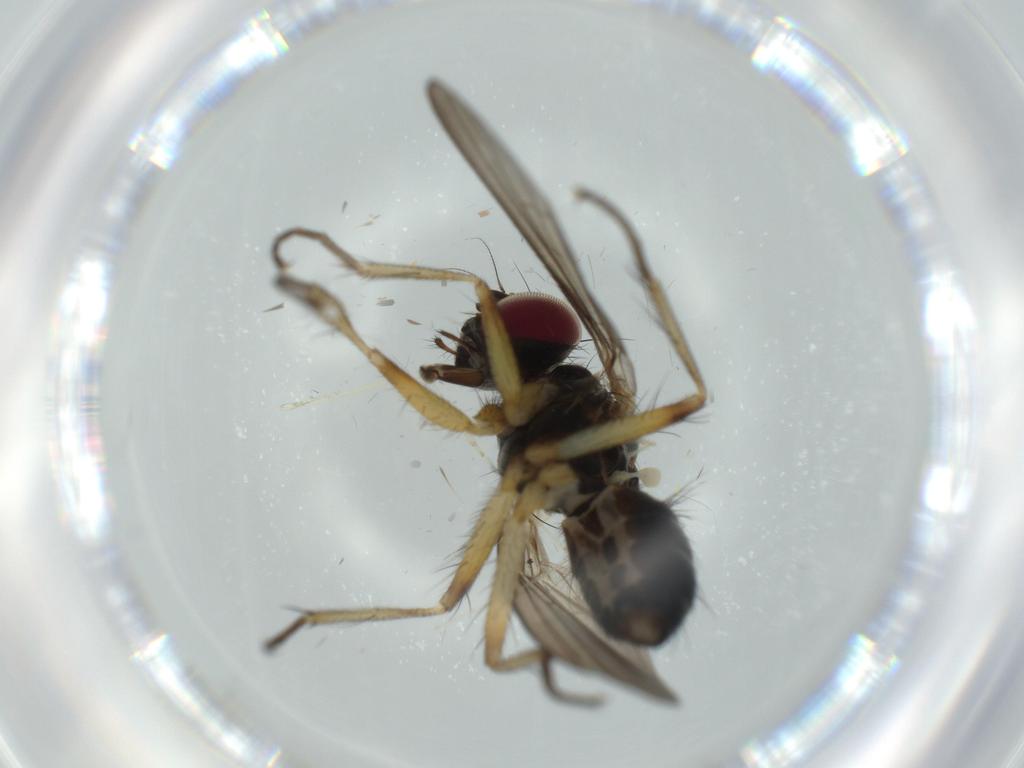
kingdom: Animalia
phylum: Arthropoda
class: Insecta
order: Diptera
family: Muscidae
